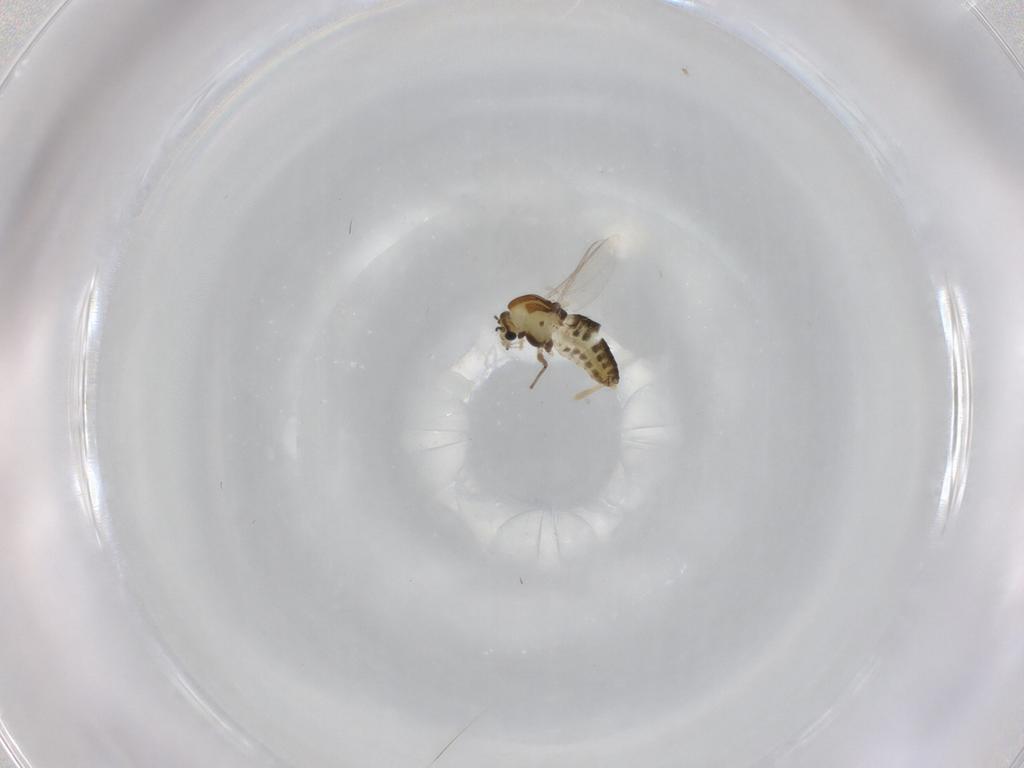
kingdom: Animalia
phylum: Arthropoda
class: Insecta
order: Diptera
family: Chironomidae
